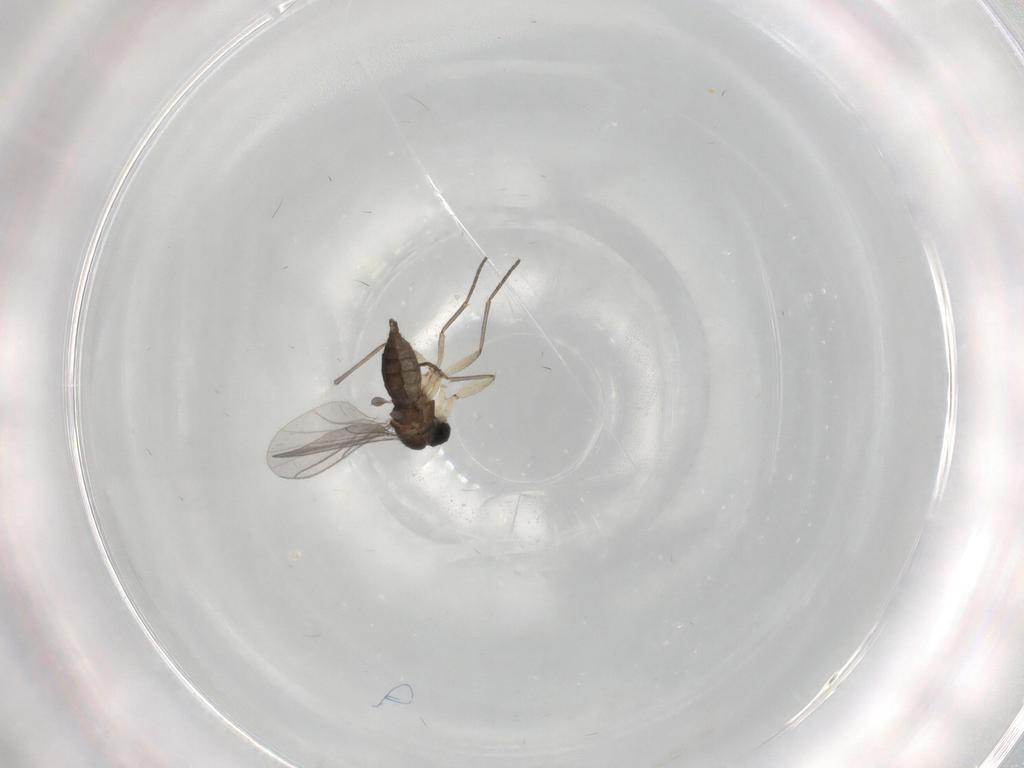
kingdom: Animalia
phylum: Arthropoda
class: Insecta
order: Diptera
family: Sciaridae
